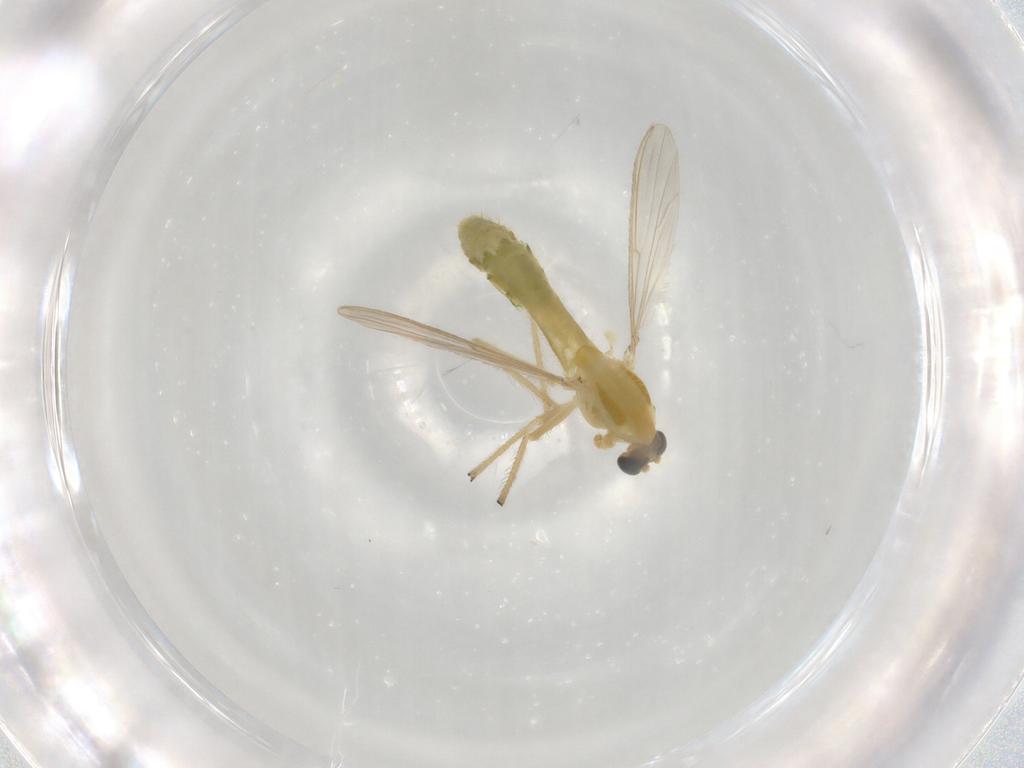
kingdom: Animalia
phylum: Arthropoda
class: Insecta
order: Diptera
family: Chironomidae
